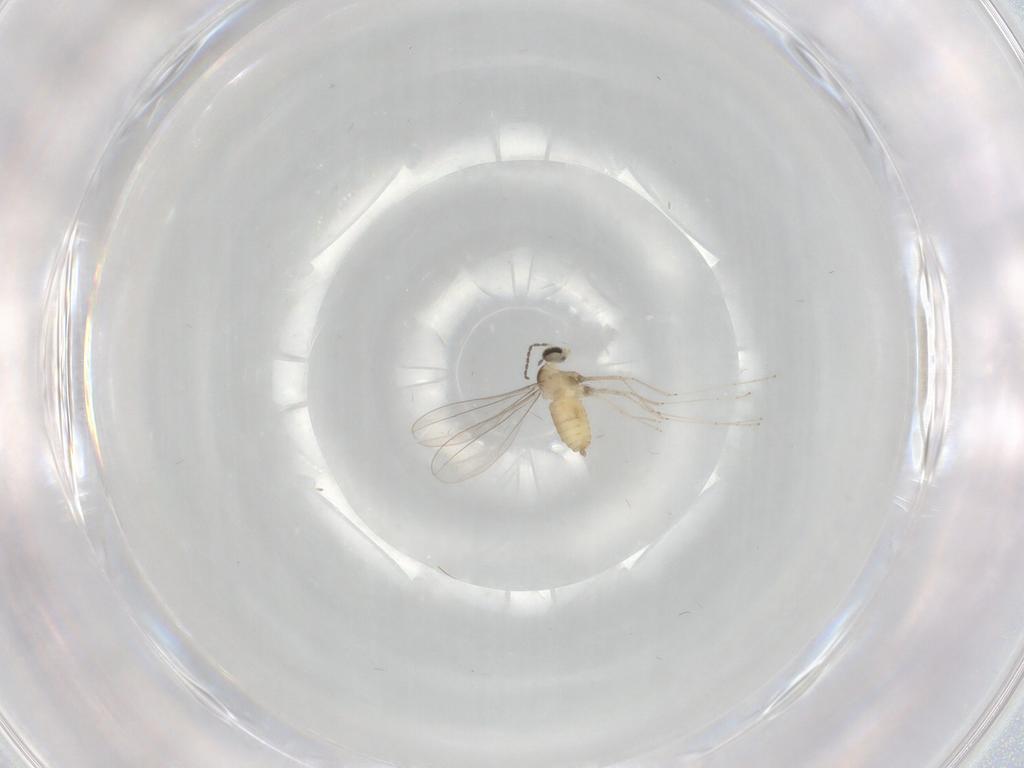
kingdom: Animalia
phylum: Arthropoda
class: Insecta
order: Diptera
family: Cecidomyiidae
